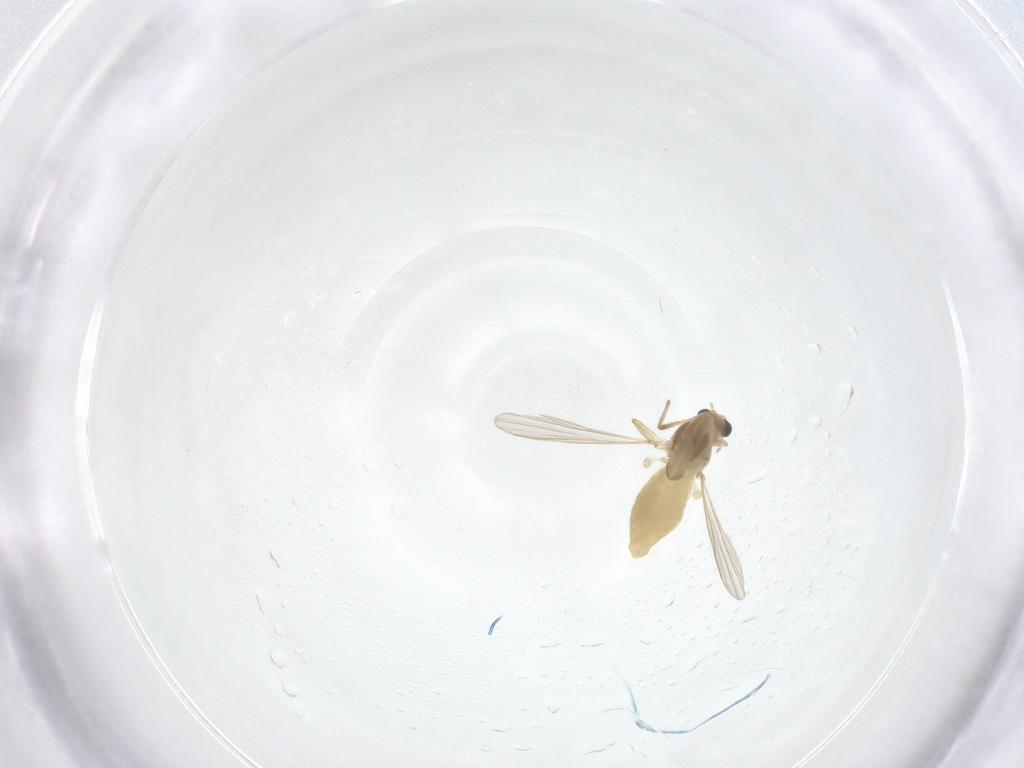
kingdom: Animalia
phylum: Arthropoda
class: Insecta
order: Diptera
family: Chironomidae
